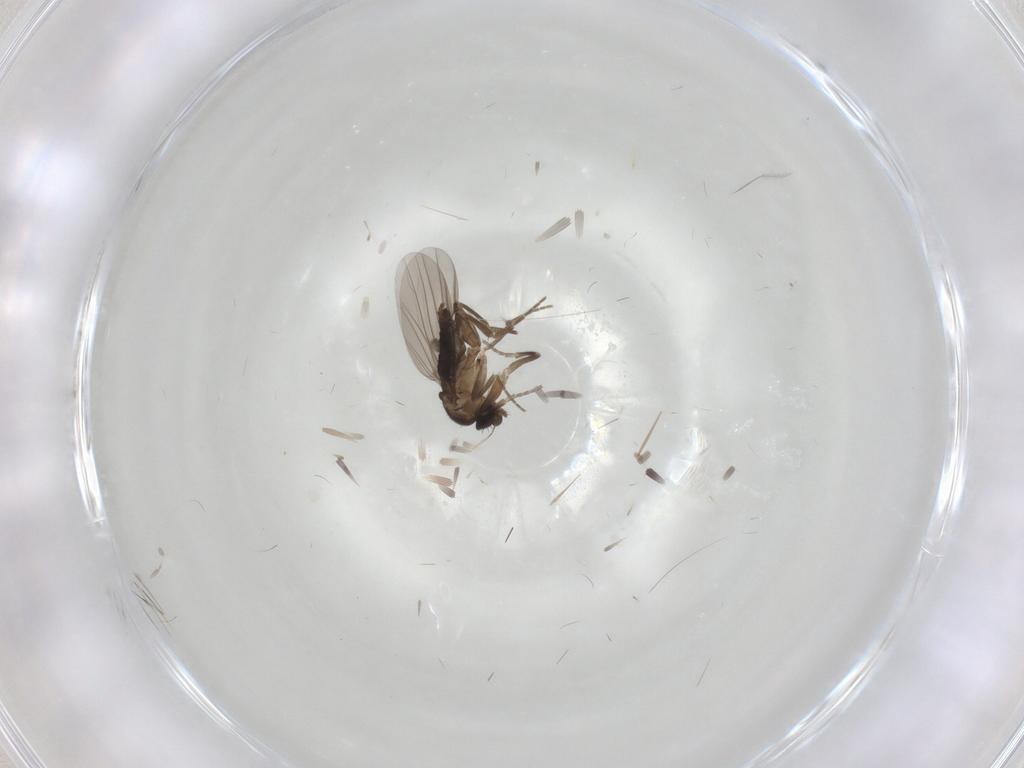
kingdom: Animalia
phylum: Arthropoda
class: Insecta
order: Diptera
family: Phoridae
